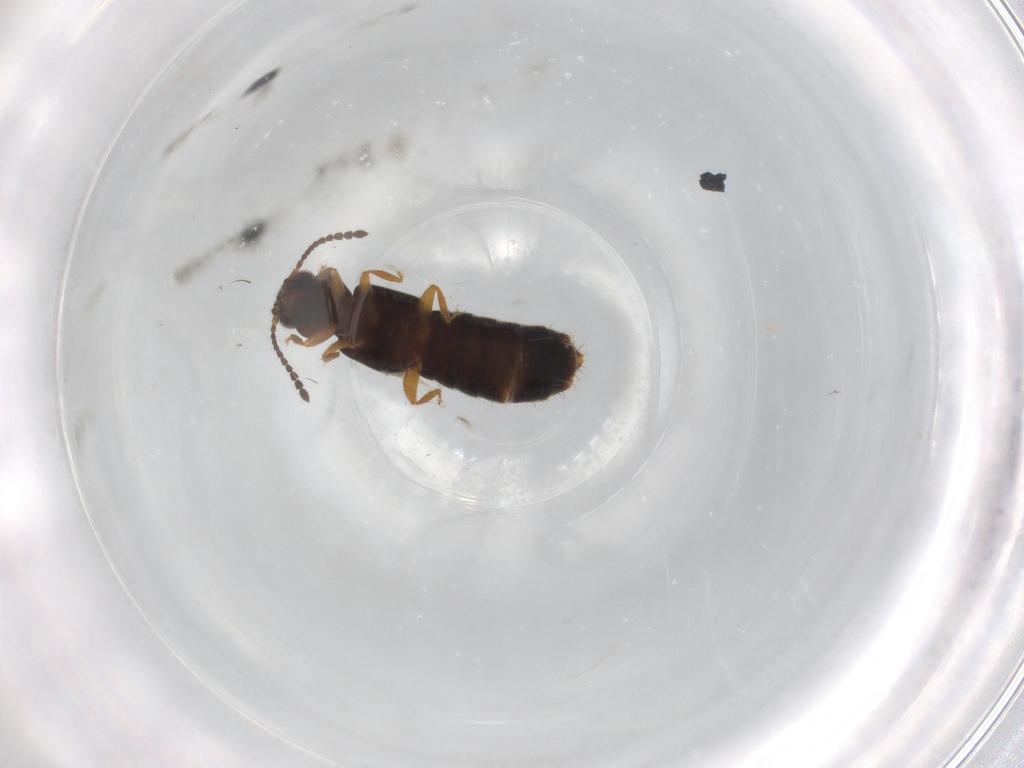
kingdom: Animalia
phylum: Arthropoda
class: Insecta
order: Coleoptera
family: Staphylinidae
